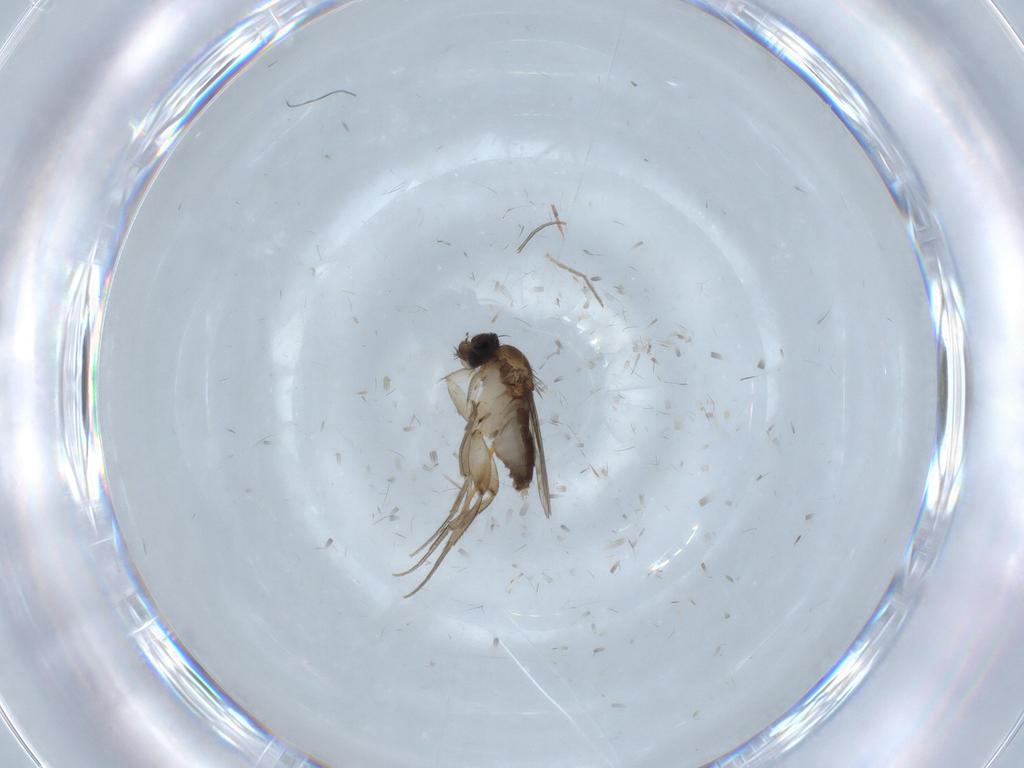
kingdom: Animalia
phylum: Arthropoda
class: Insecta
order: Diptera
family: Phoridae
